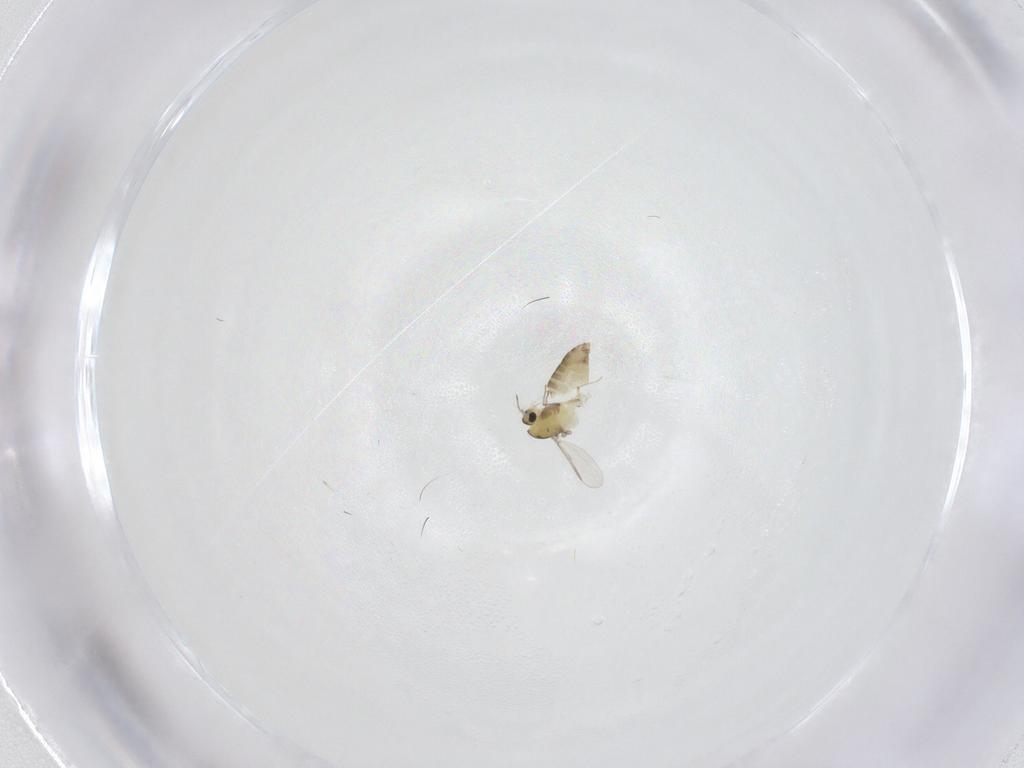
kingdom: Animalia
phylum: Arthropoda
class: Insecta
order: Diptera
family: Chironomidae
